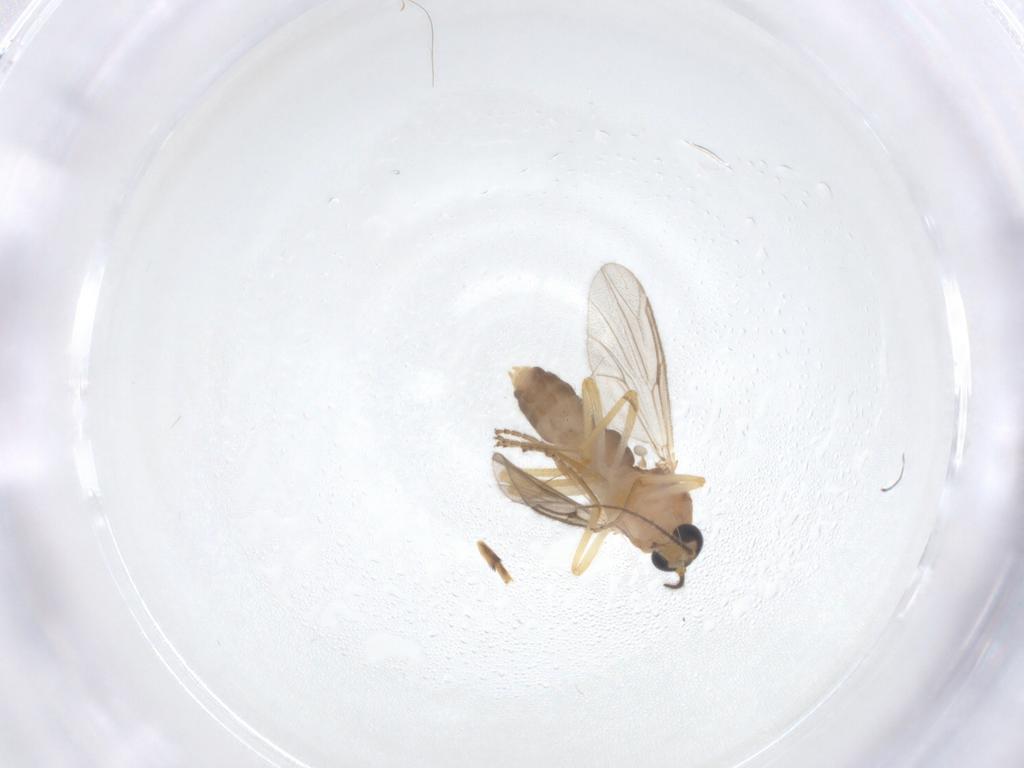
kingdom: Animalia
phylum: Arthropoda
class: Insecta
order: Diptera
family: Ceratopogonidae
